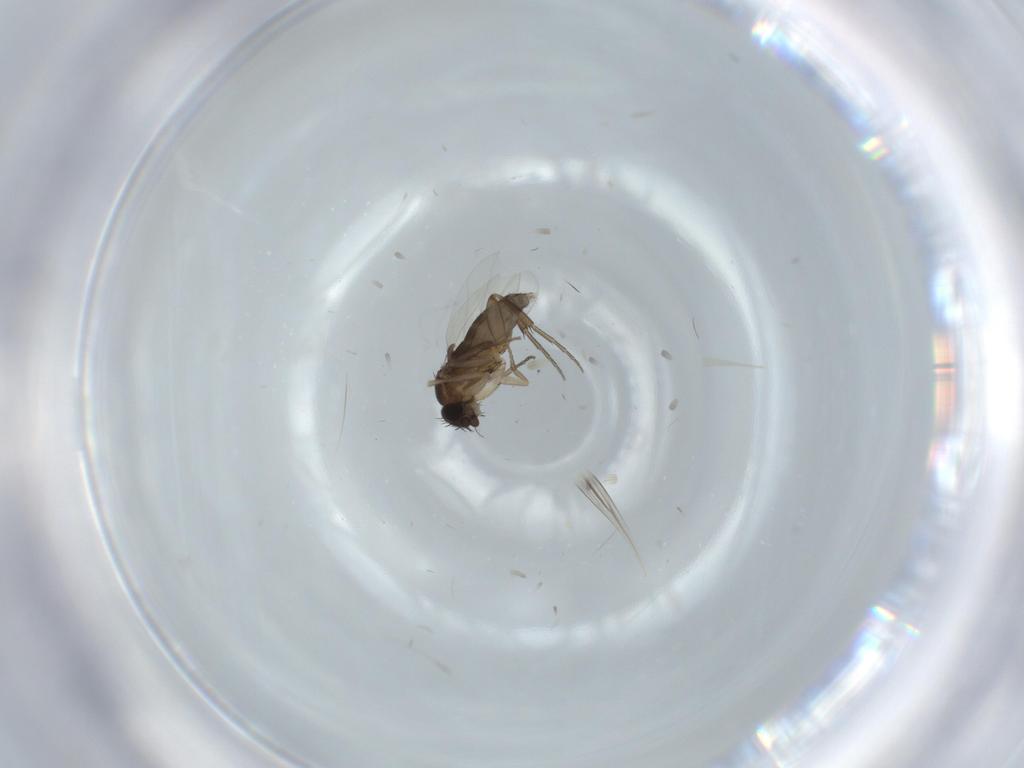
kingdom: Animalia
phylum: Arthropoda
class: Insecta
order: Diptera
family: Phoridae
